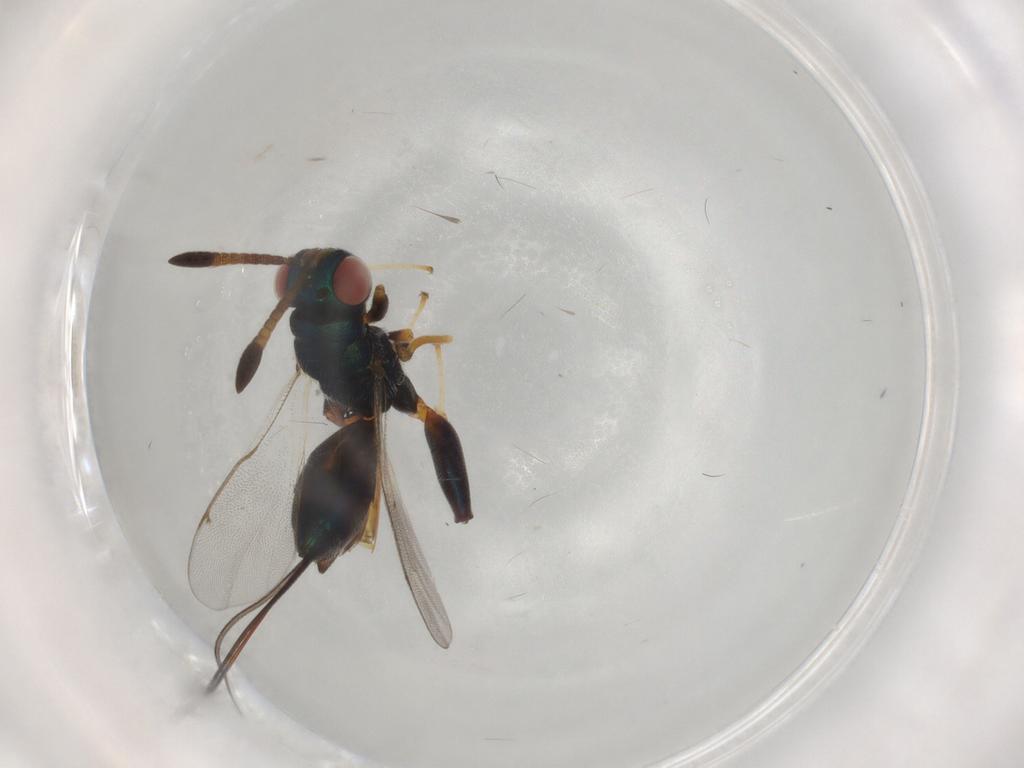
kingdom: Animalia
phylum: Arthropoda
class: Insecta
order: Hymenoptera
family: Torymidae
